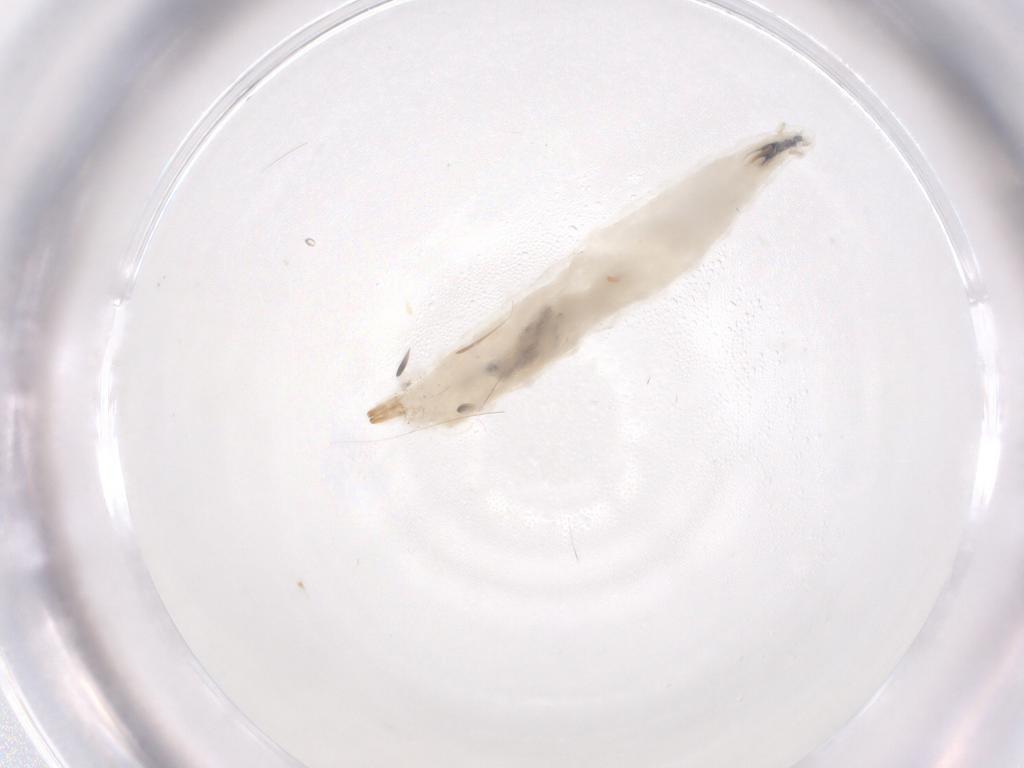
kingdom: Animalia
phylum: Arthropoda
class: Insecta
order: Diptera
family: Drosophilidae
